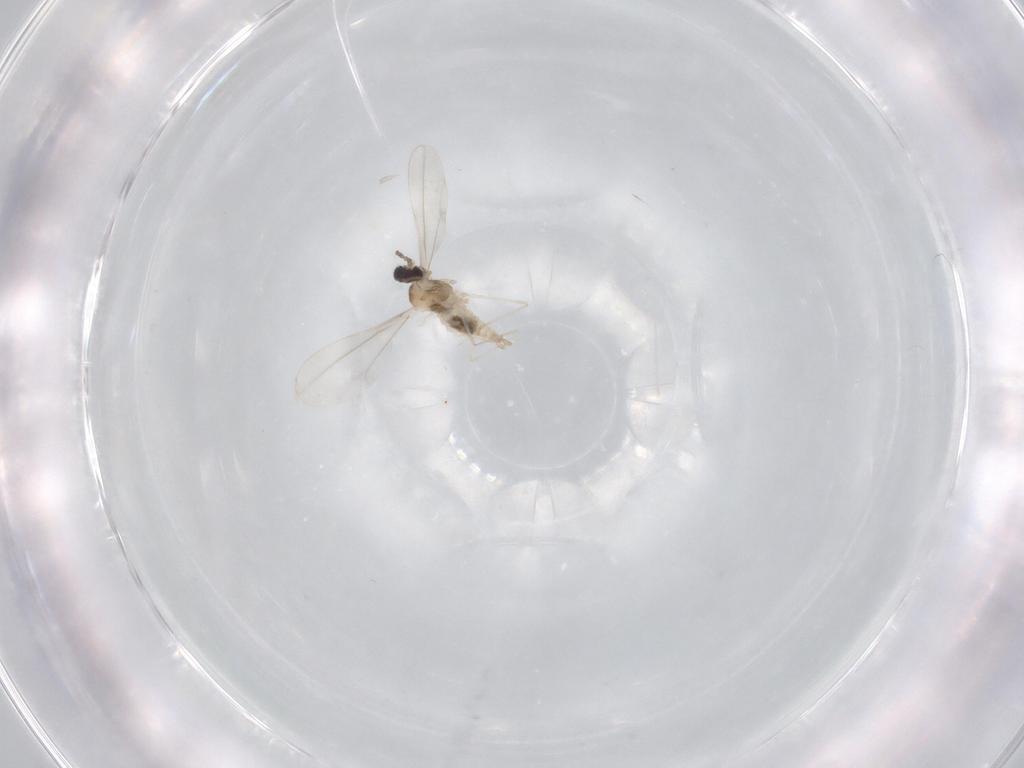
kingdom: Animalia
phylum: Arthropoda
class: Insecta
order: Diptera
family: Cecidomyiidae
